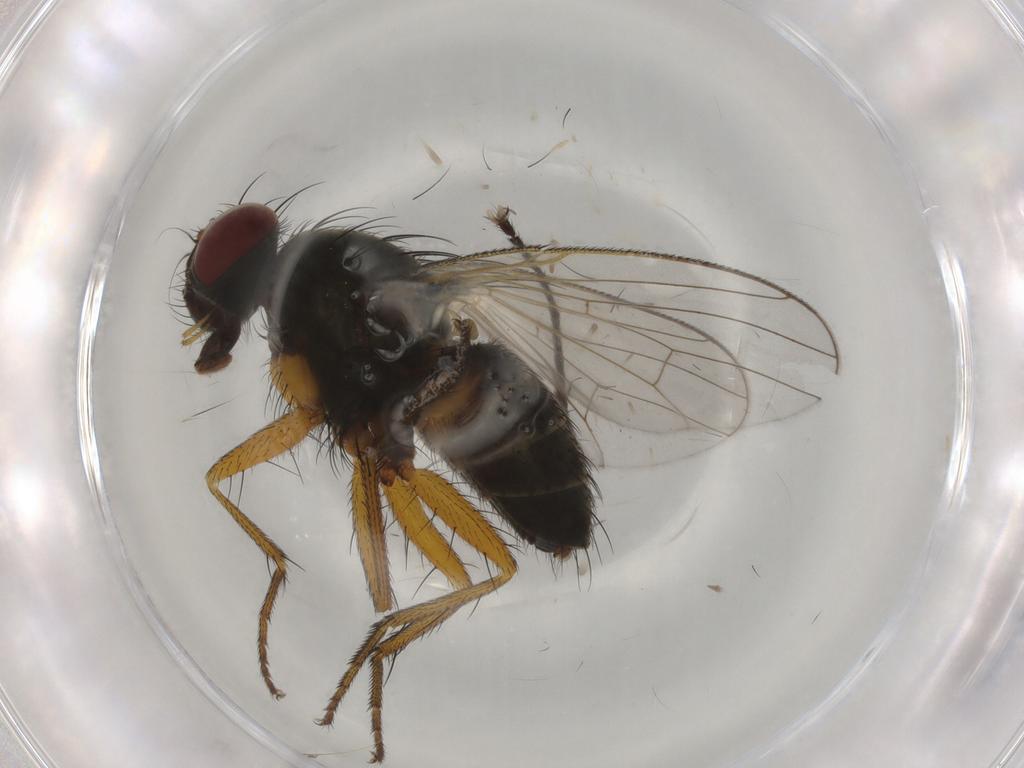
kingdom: Animalia
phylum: Arthropoda
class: Insecta
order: Diptera
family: Muscidae
